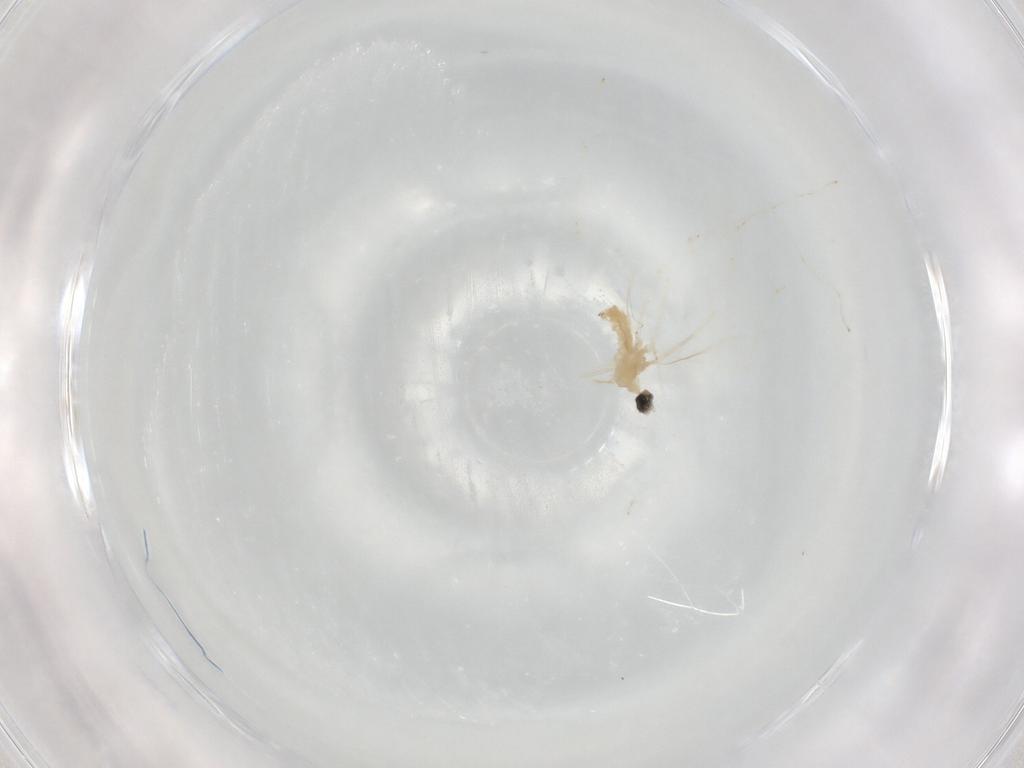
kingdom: Animalia
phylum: Arthropoda
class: Insecta
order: Diptera
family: Cecidomyiidae
